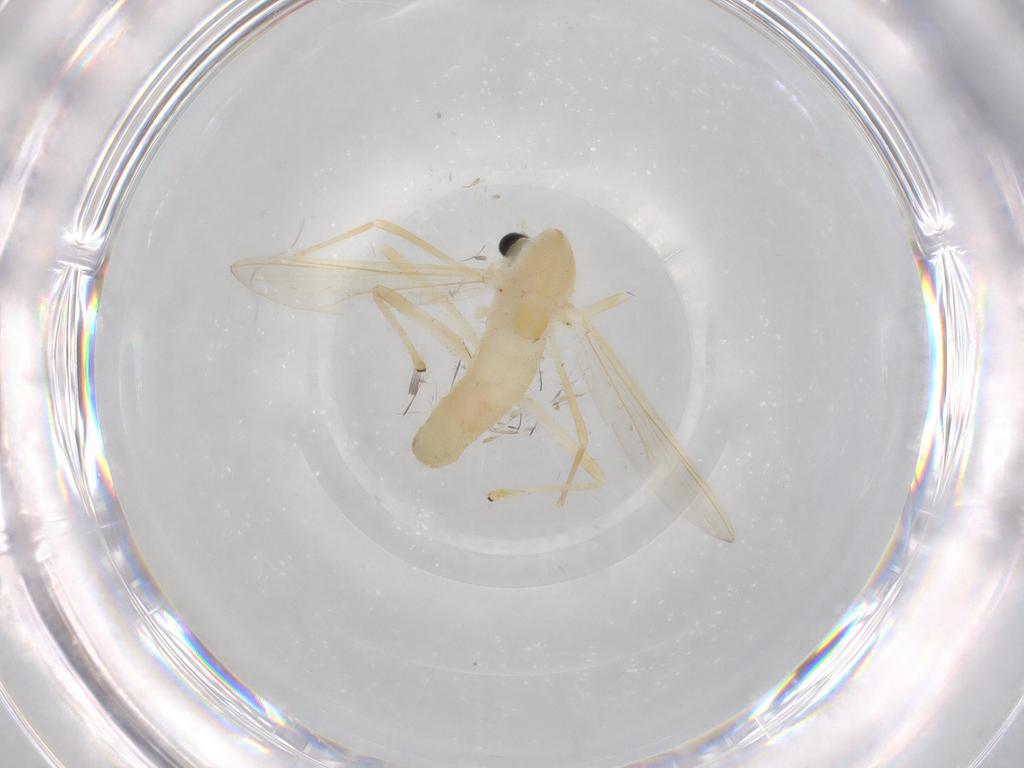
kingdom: Animalia
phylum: Arthropoda
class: Insecta
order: Diptera
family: Chironomidae
